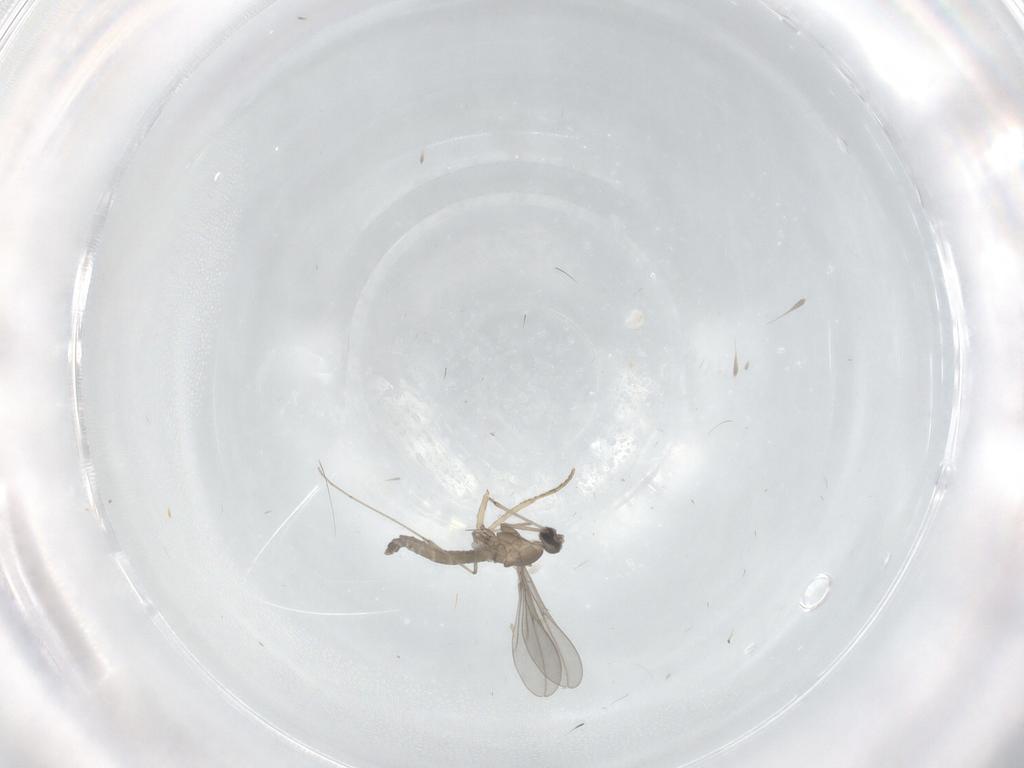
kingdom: Animalia
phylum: Arthropoda
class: Insecta
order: Diptera
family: Cecidomyiidae
